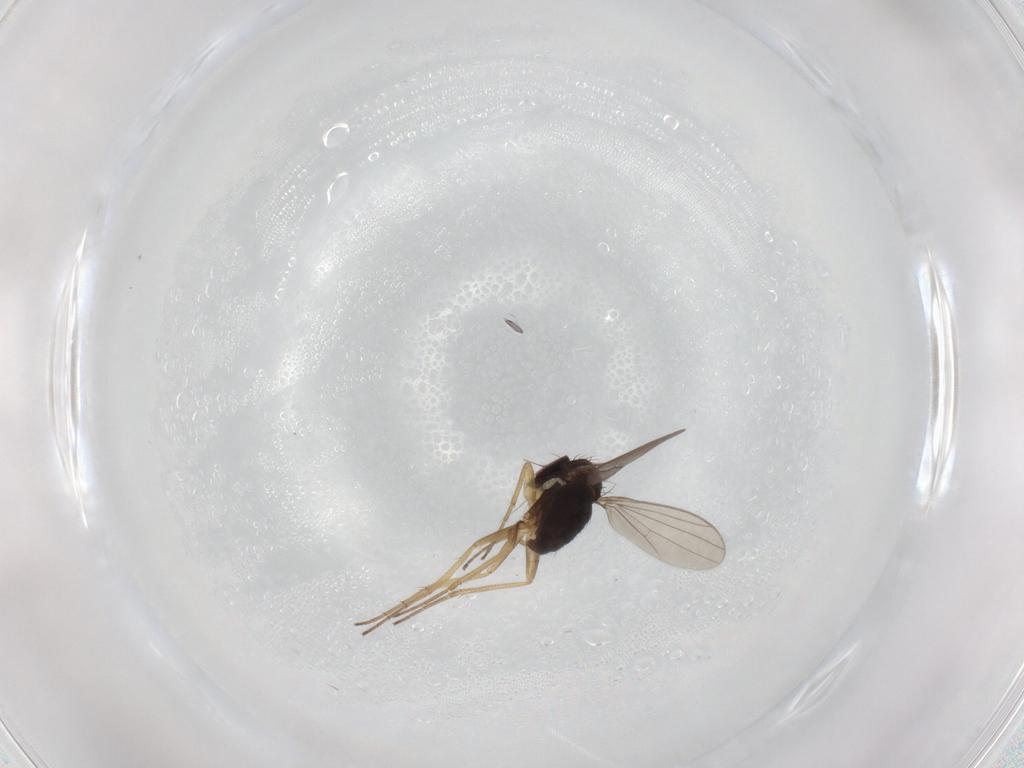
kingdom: Animalia
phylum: Arthropoda
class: Insecta
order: Diptera
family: Dolichopodidae
